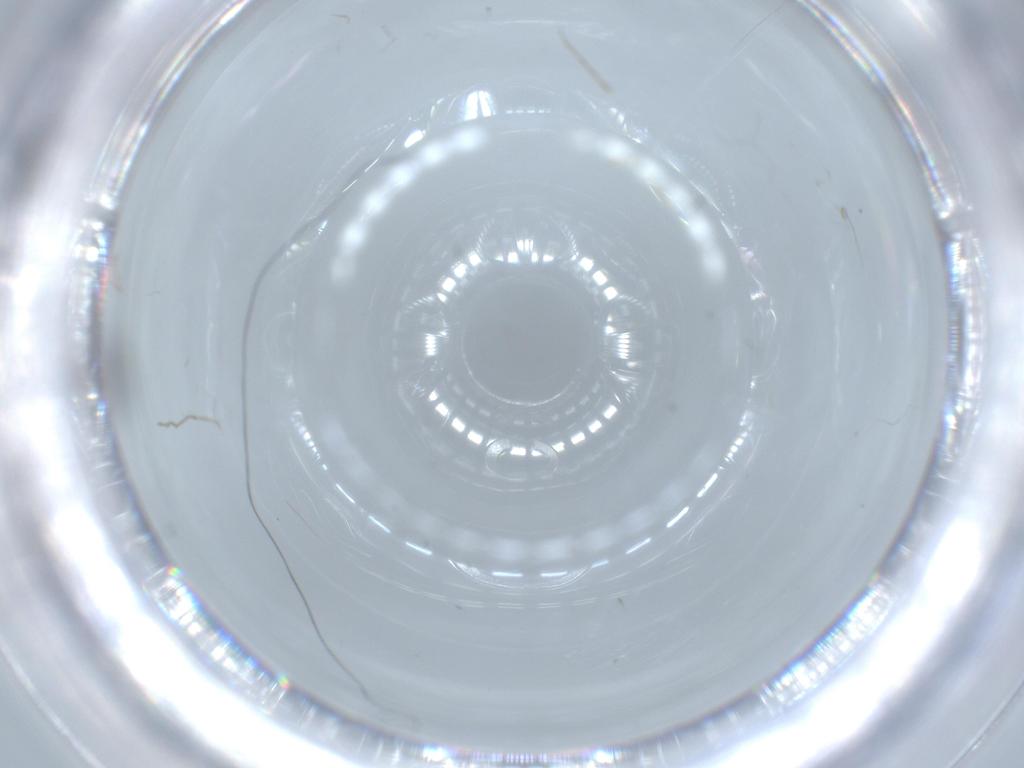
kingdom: Animalia
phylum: Arthropoda
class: Insecta
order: Diptera
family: Phoridae
